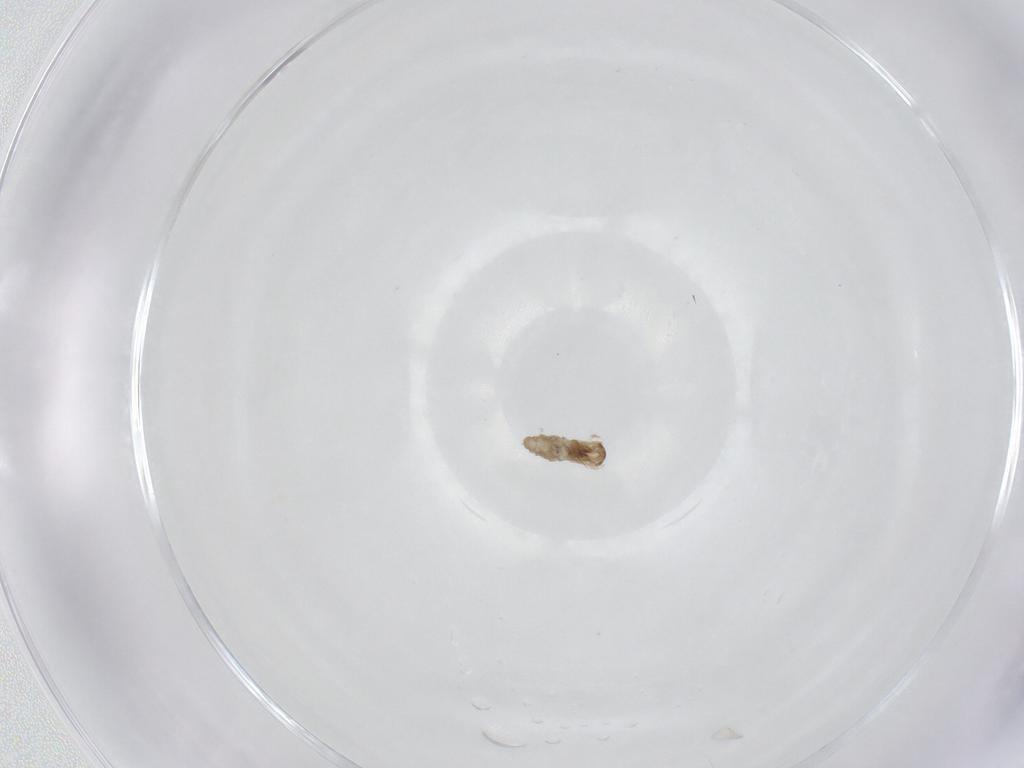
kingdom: Animalia
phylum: Arthropoda
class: Insecta
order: Diptera
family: Cecidomyiidae
